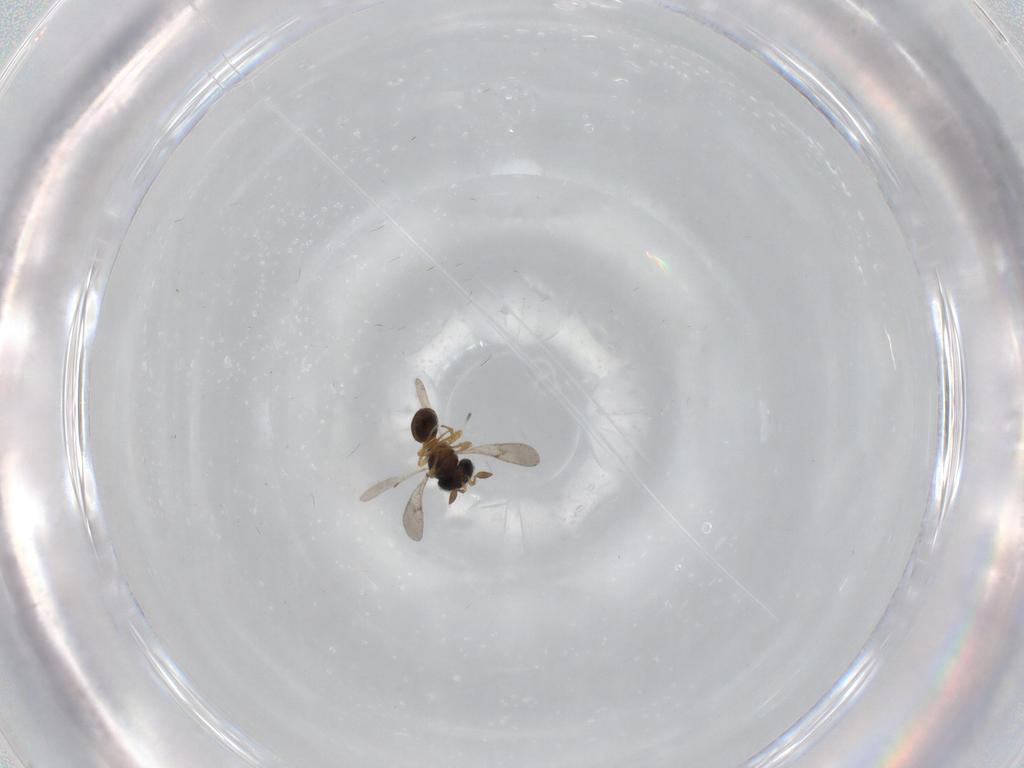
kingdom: Animalia
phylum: Arthropoda
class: Insecta
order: Hymenoptera
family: Scelionidae
